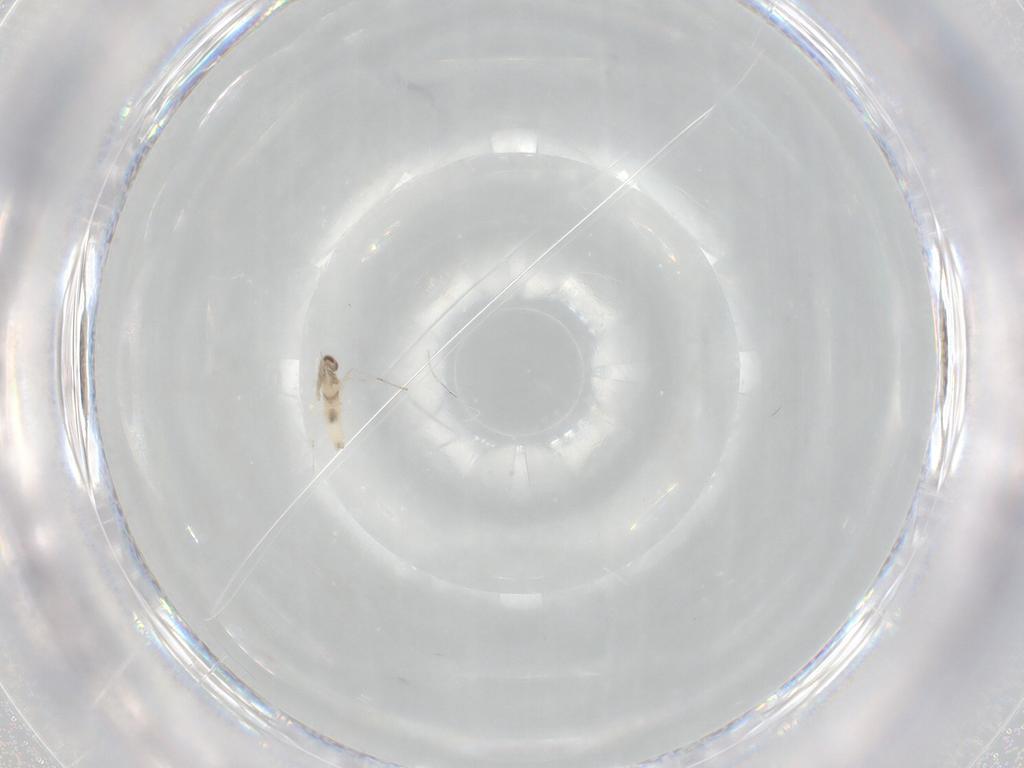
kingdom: Animalia
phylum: Arthropoda
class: Insecta
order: Diptera
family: Cecidomyiidae
